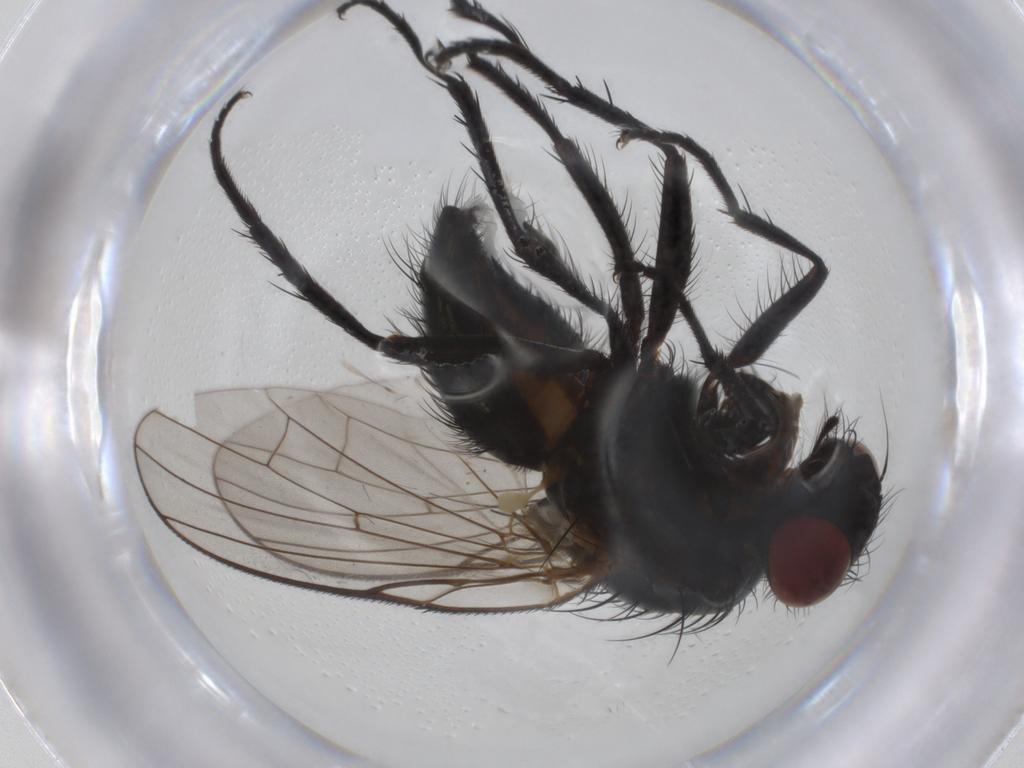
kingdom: Animalia
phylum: Arthropoda
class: Insecta
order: Diptera
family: Anthomyiidae
